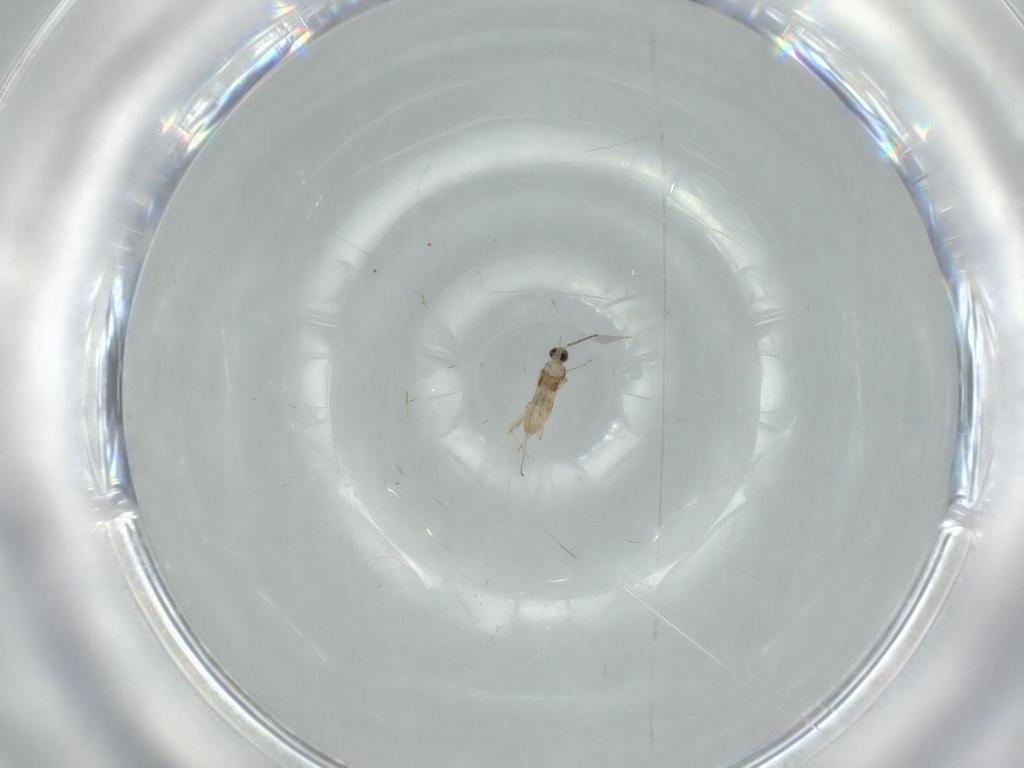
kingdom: Animalia
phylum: Arthropoda
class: Insecta
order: Diptera
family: Cecidomyiidae
